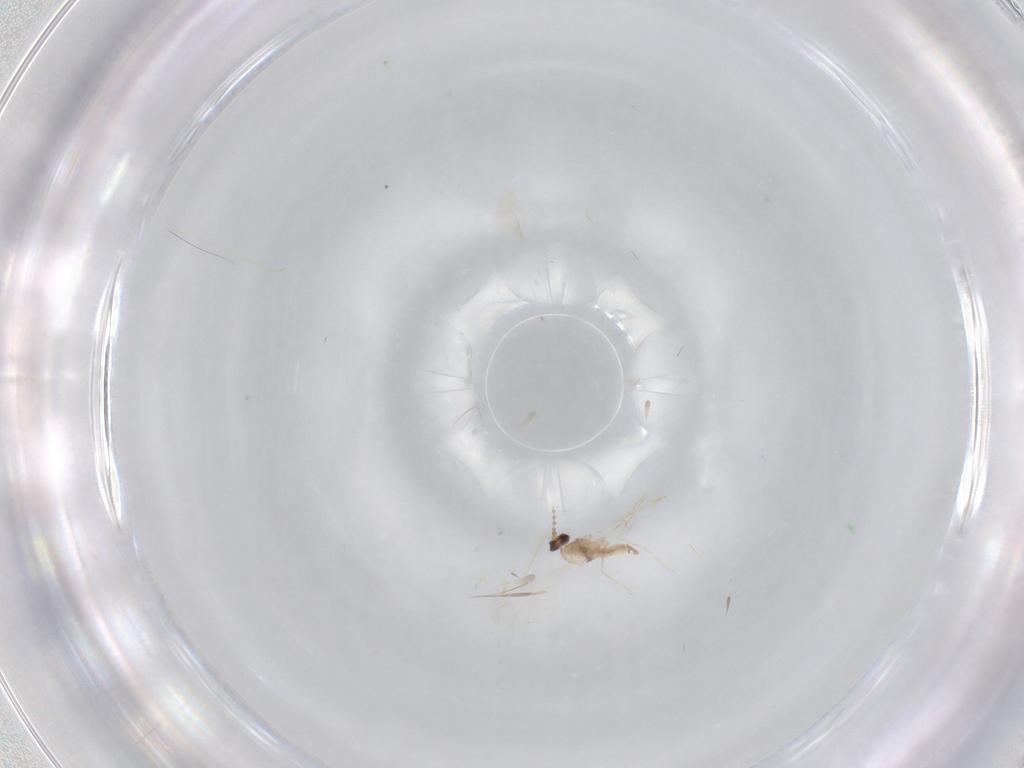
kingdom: Animalia
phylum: Arthropoda
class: Insecta
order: Diptera
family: Cecidomyiidae
